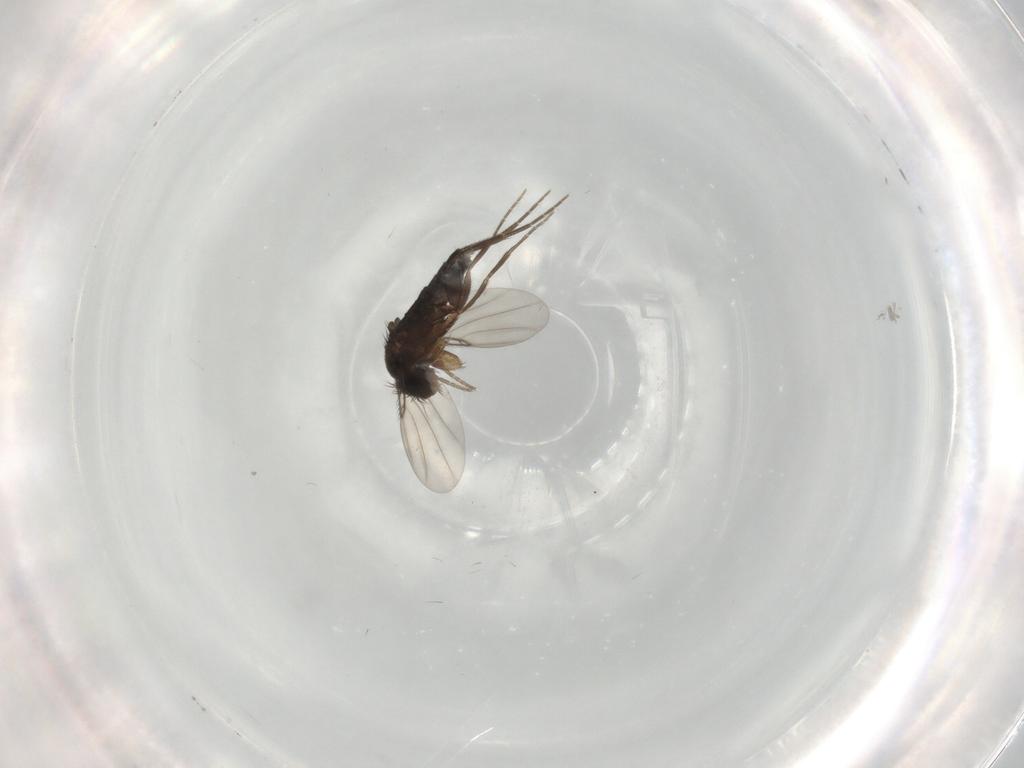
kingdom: Animalia
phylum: Arthropoda
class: Insecta
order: Diptera
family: Phoridae
